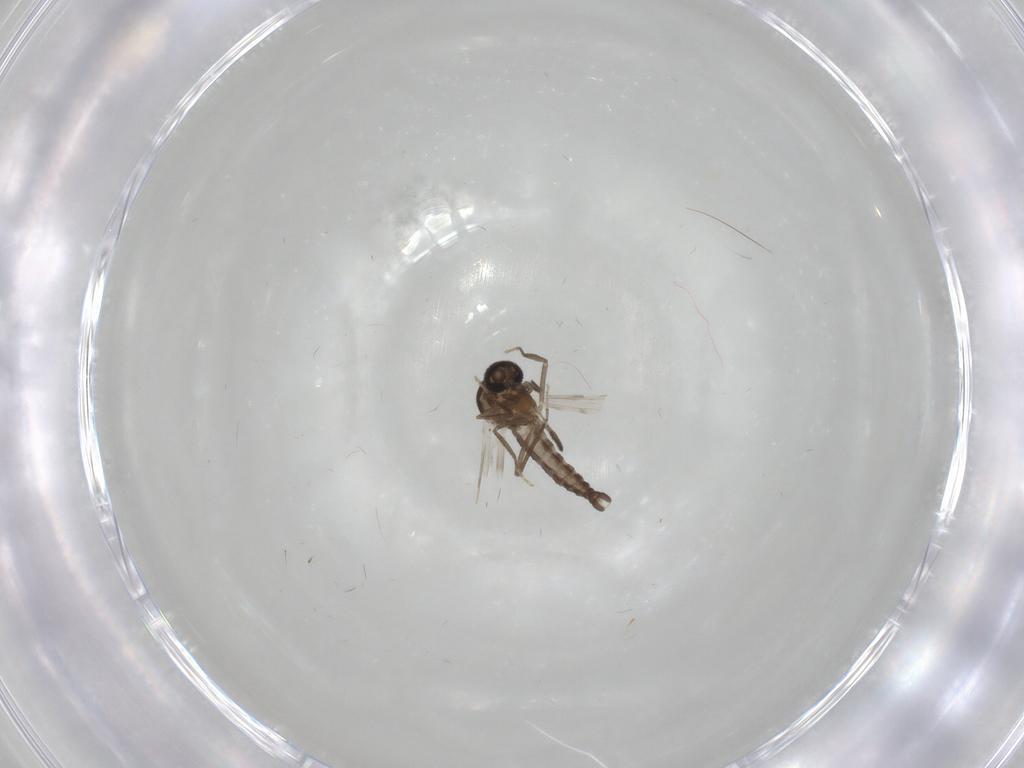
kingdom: Animalia
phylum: Arthropoda
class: Insecta
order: Diptera
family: Ceratopogonidae
